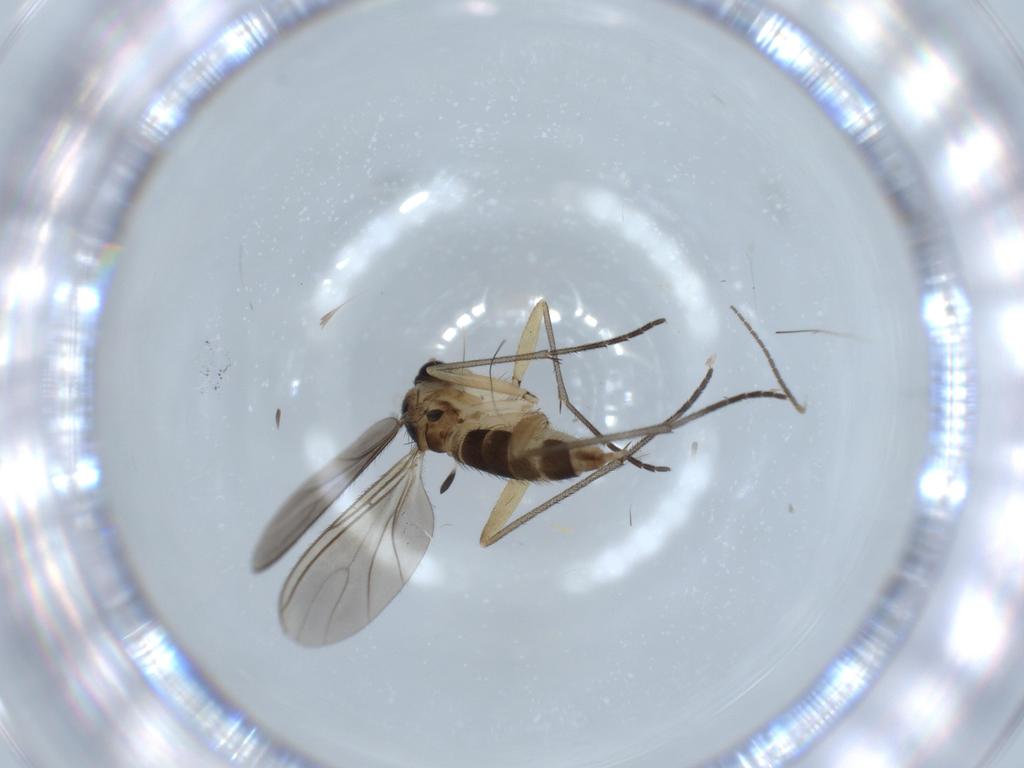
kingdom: Animalia
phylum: Arthropoda
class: Insecta
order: Diptera
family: Sciaridae
